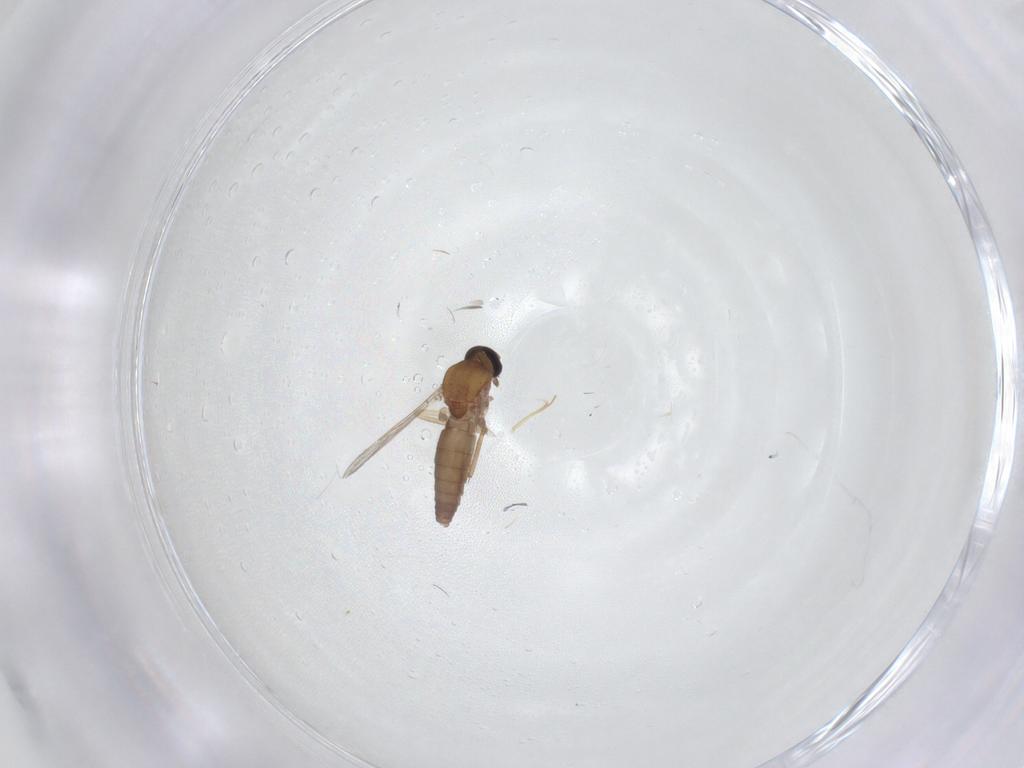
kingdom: Animalia
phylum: Arthropoda
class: Insecta
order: Diptera
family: Ceratopogonidae
